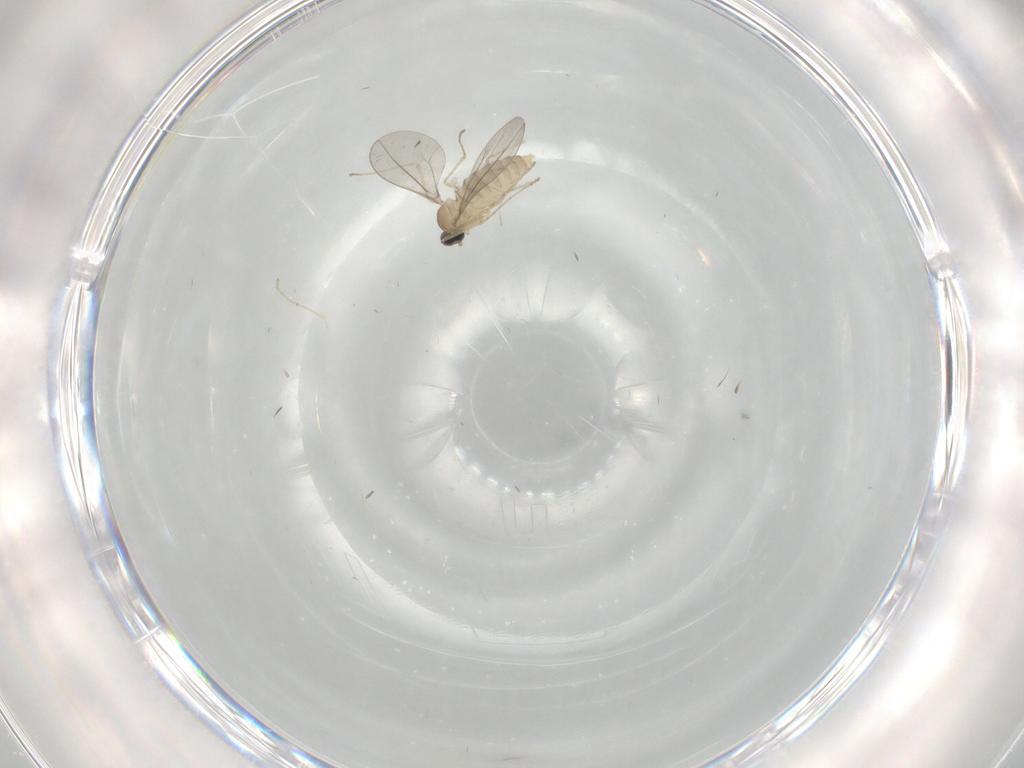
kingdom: Animalia
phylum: Arthropoda
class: Insecta
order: Diptera
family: Cecidomyiidae
